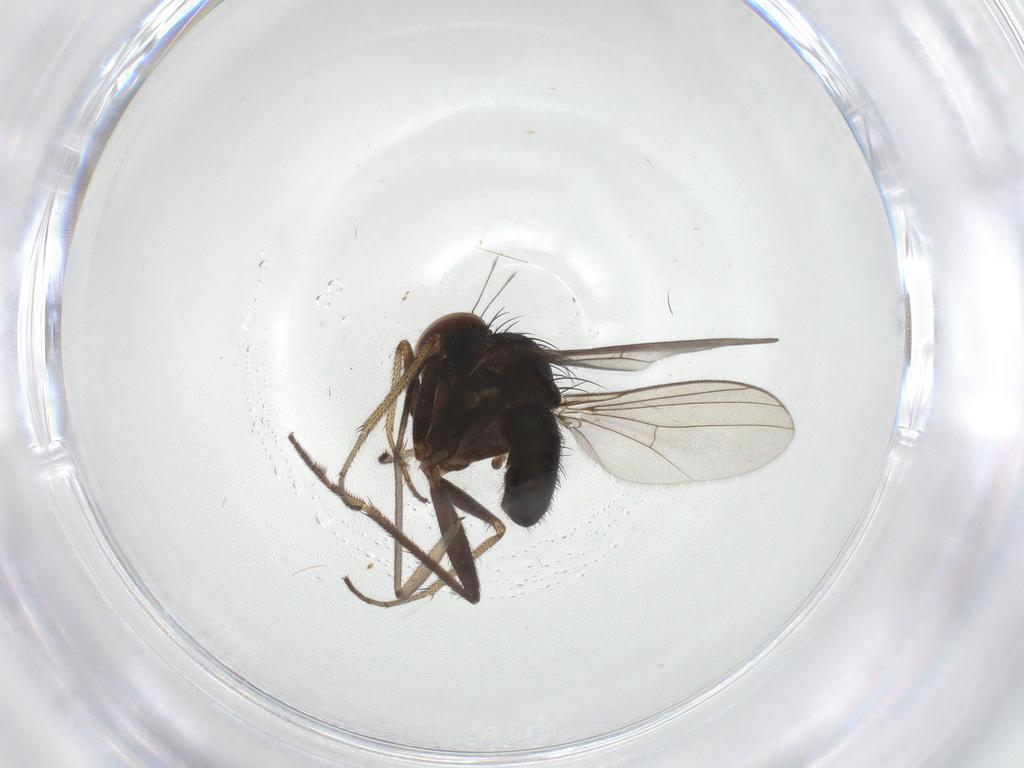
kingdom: Animalia
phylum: Arthropoda
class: Insecta
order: Diptera
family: Sciaridae
